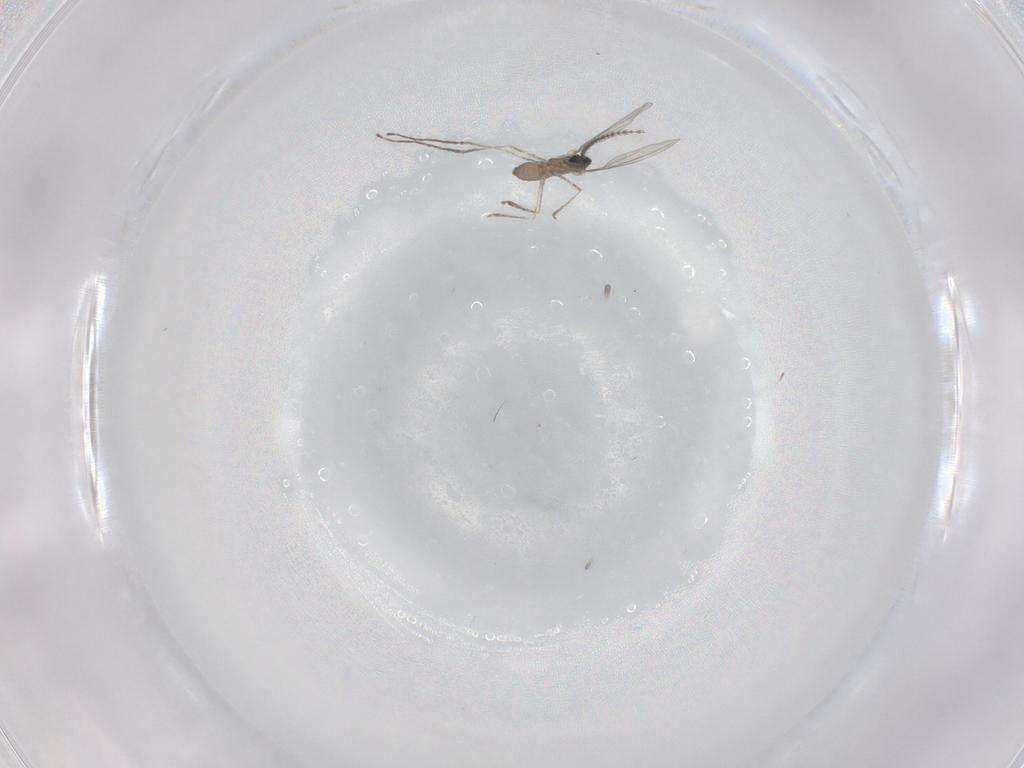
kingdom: Animalia
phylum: Arthropoda
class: Insecta
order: Diptera
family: Cecidomyiidae
